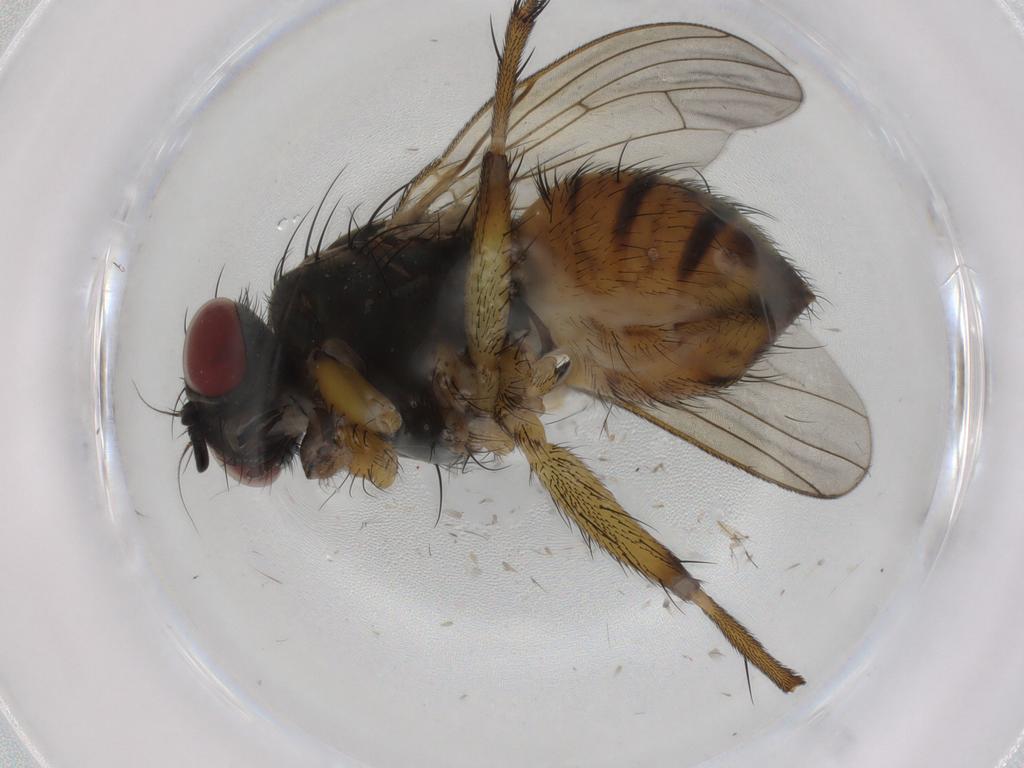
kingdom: Animalia
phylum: Arthropoda
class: Insecta
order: Diptera
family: Muscidae
